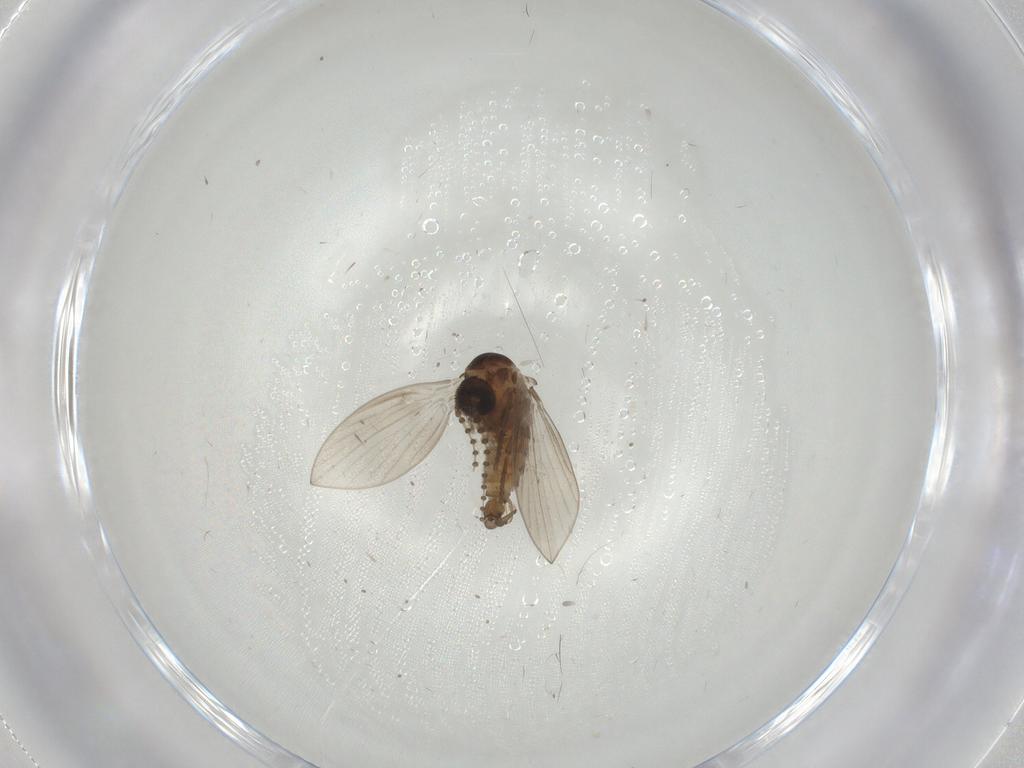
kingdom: Animalia
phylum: Arthropoda
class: Insecta
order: Diptera
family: Psychodidae
